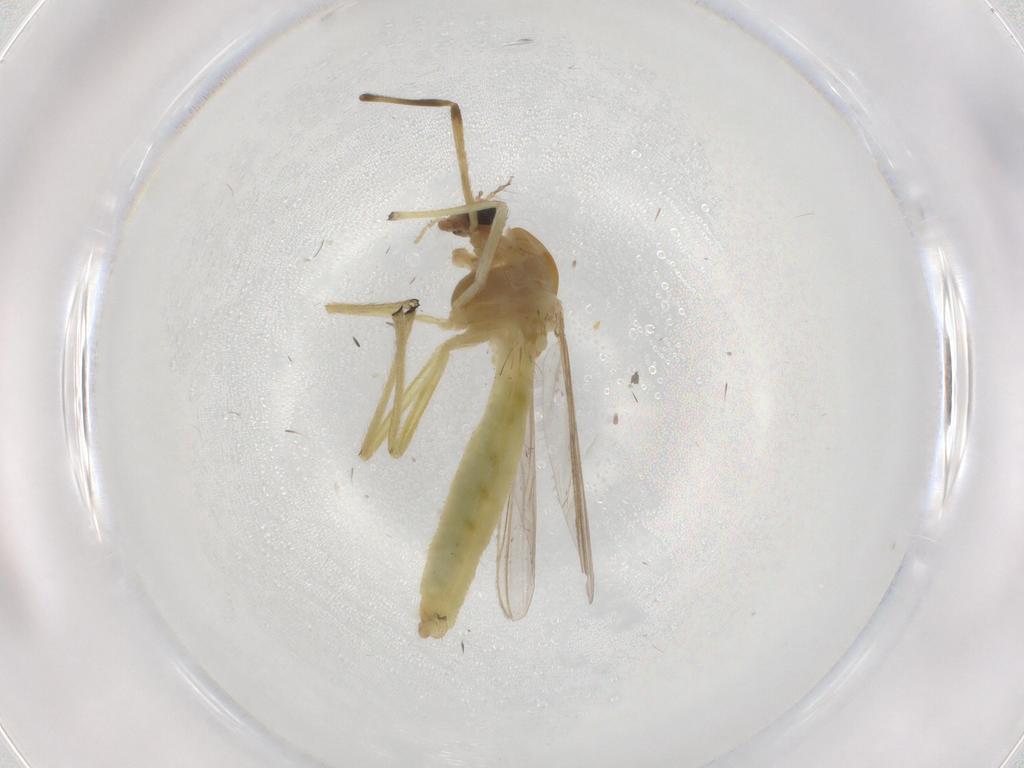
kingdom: Animalia
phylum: Arthropoda
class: Insecta
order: Diptera
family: Chironomidae
